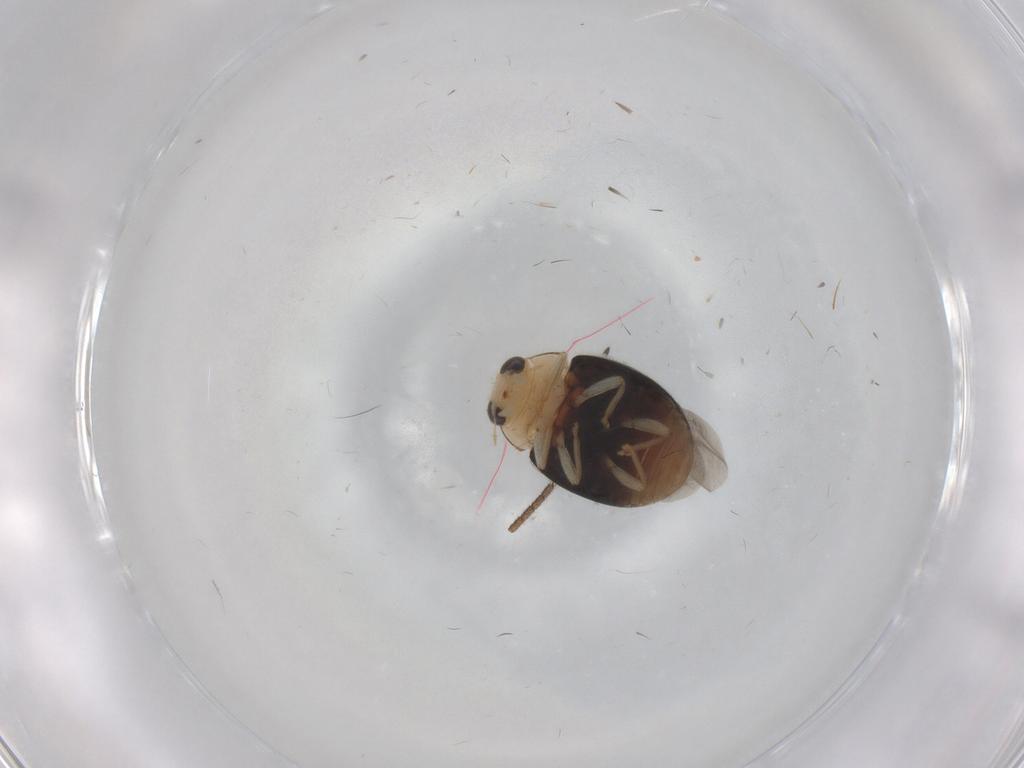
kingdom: Animalia
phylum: Arthropoda
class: Insecta
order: Coleoptera
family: Coccinellidae
